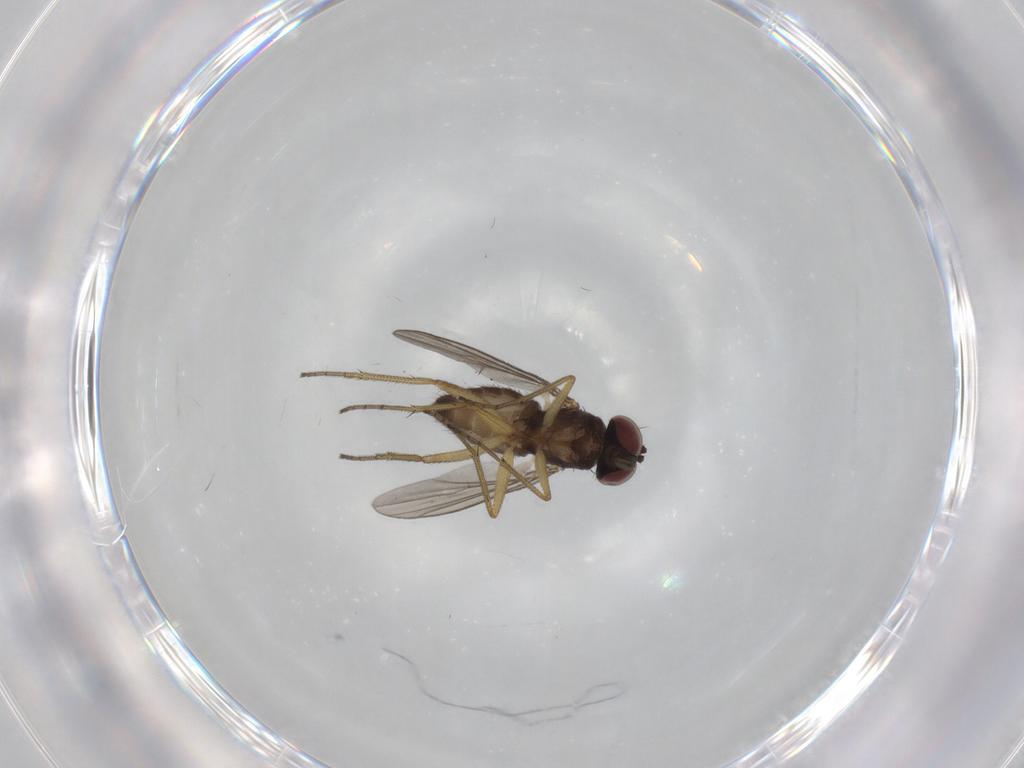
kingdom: Animalia
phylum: Arthropoda
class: Insecta
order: Diptera
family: Dolichopodidae
